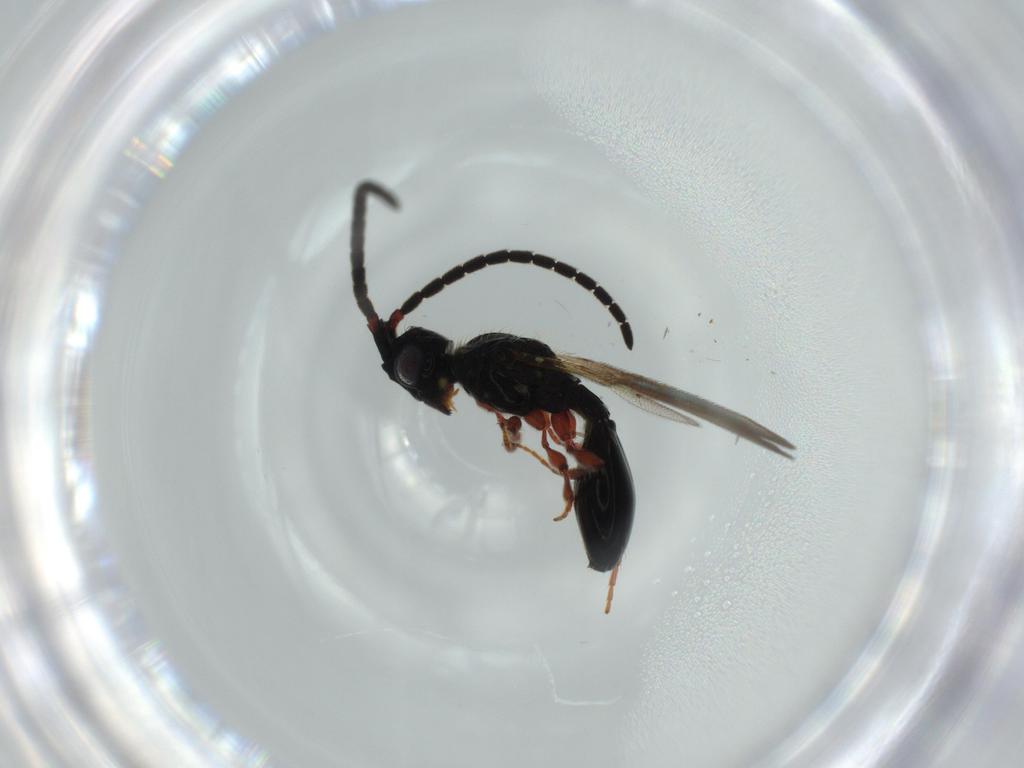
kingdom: Animalia
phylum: Arthropoda
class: Insecta
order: Hymenoptera
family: Diapriidae
